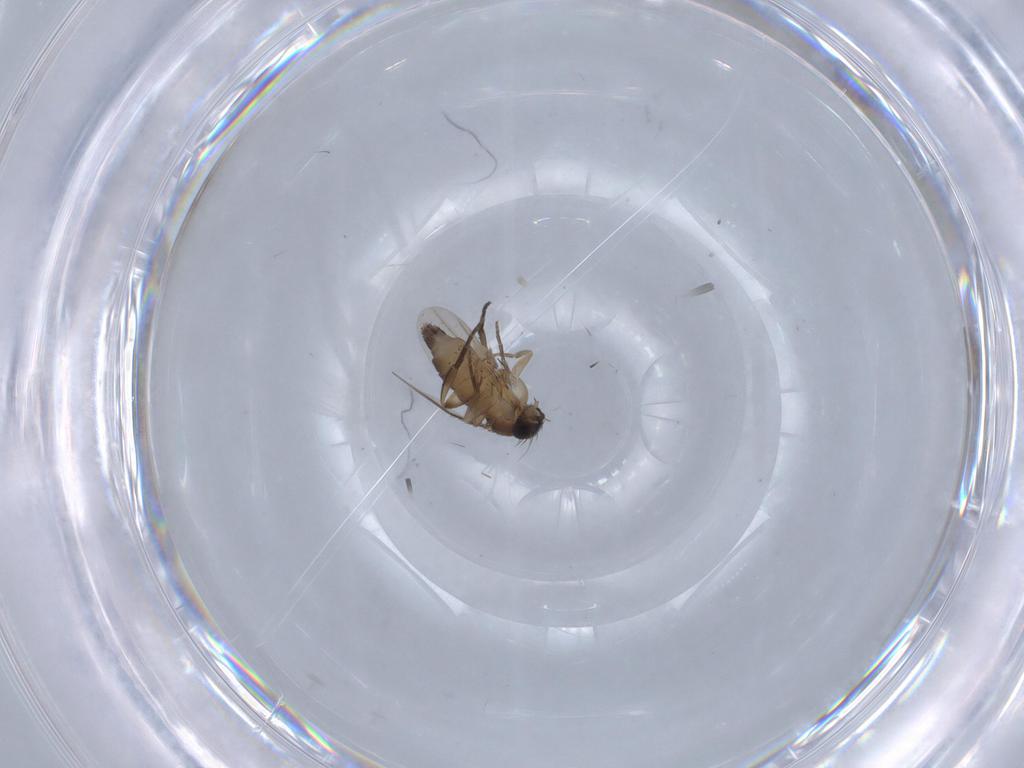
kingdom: Animalia
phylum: Arthropoda
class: Insecta
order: Diptera
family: Phoridae
